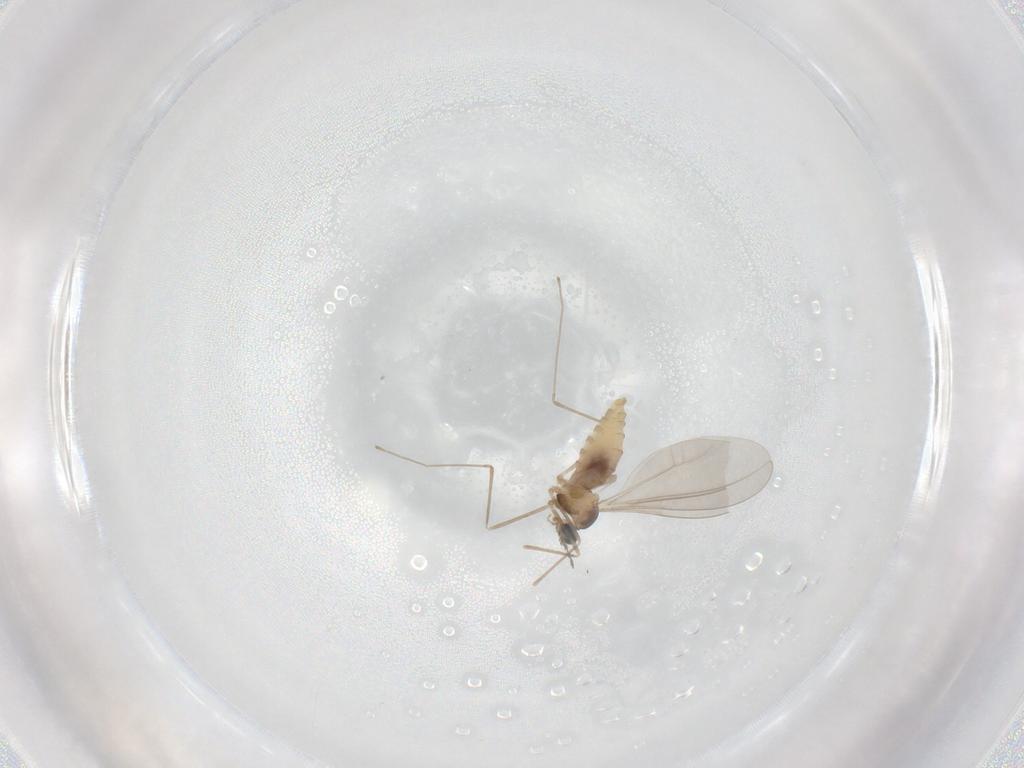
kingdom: Animalia
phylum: Arthropoda
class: Insecta
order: Diptera
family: Cecidomyiidae
